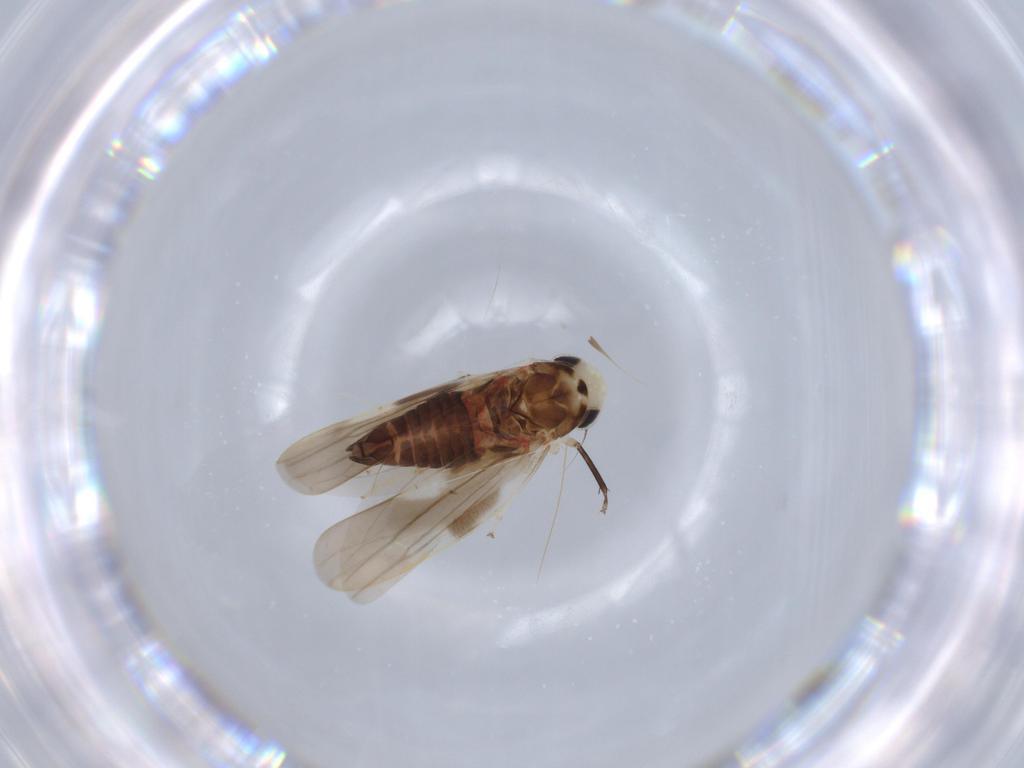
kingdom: Animalia
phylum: Arthropoda
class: Insecta
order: Hemiptera
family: Cicadellidae
